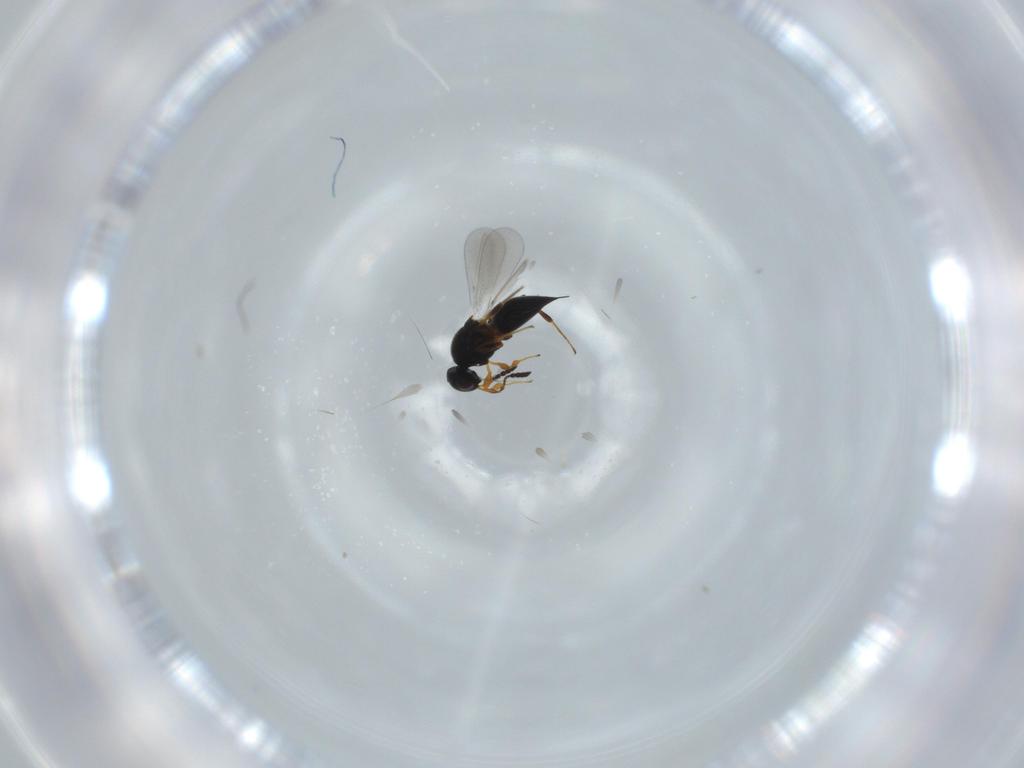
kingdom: Animalia
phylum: Arthropoda
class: Insecta
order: Hymenoptera
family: Platygastridae
